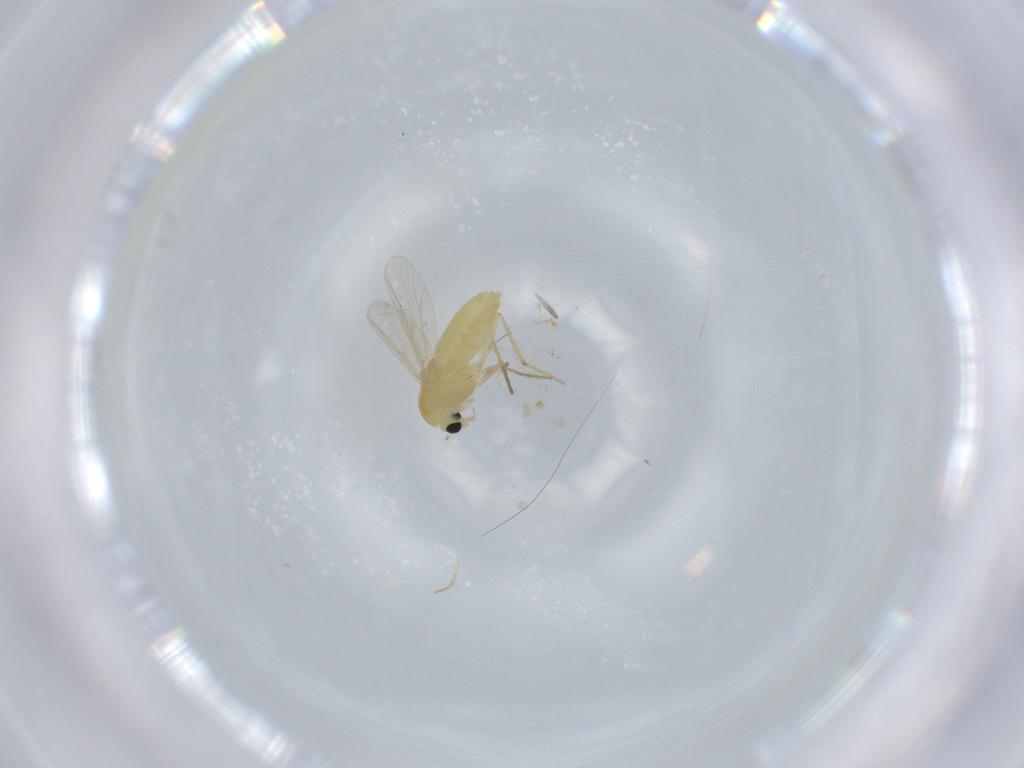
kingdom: Animalia
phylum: Arthropoda
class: Insecta
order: Diptera
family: Chironomidae
